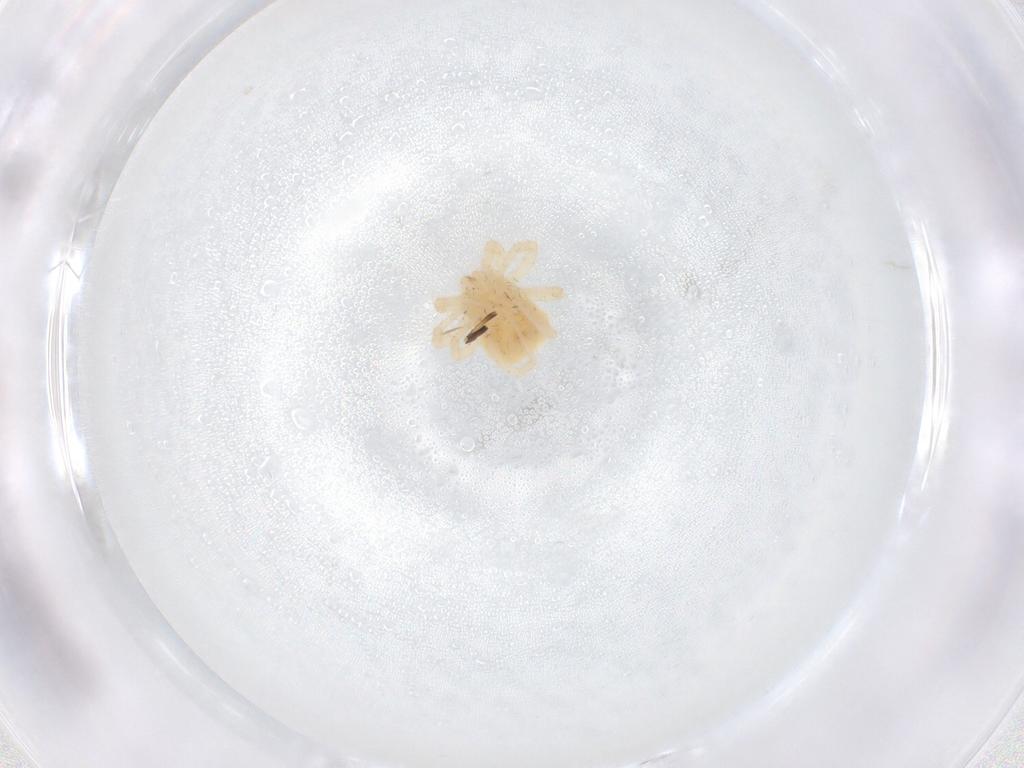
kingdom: Animalia
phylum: Arthropoda
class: Arachnida
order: Trombidiformes
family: Anystidae
